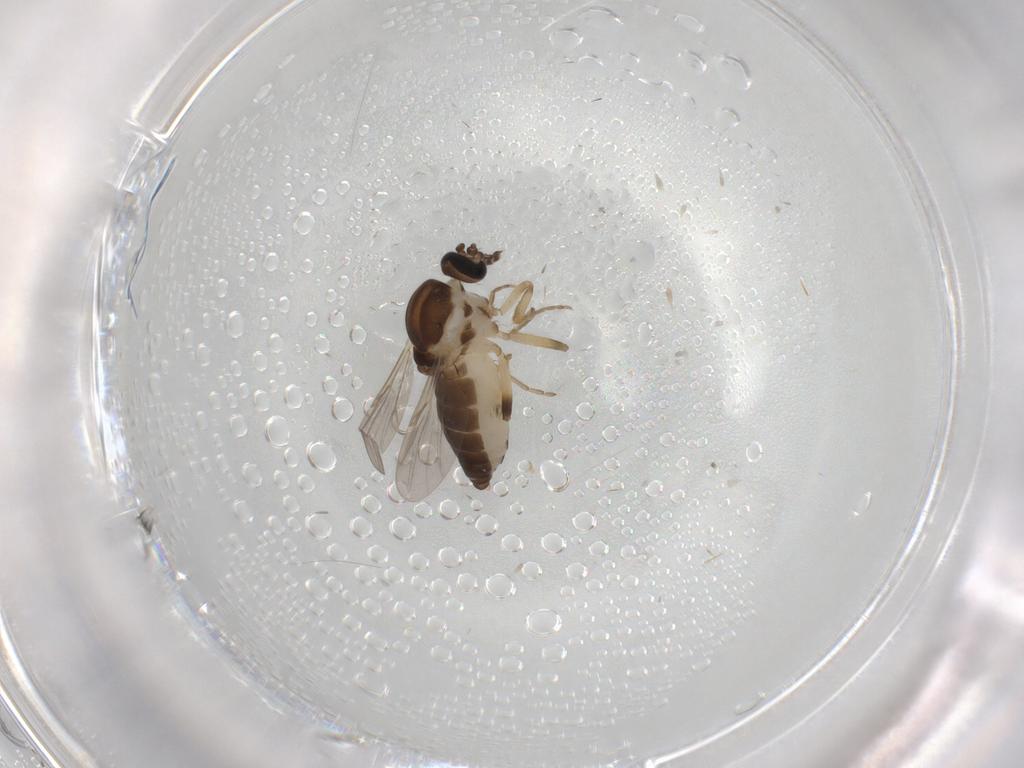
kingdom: Animalia
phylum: Arthropoda
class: Insecta
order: Diptera
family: Ceratopogonidae
